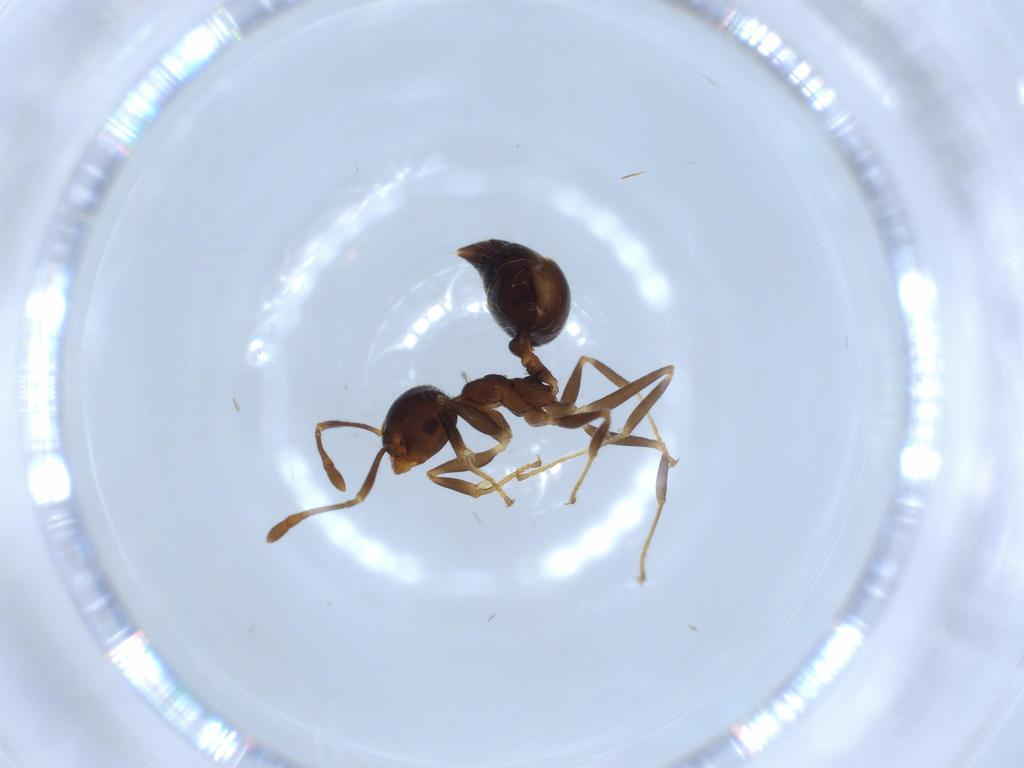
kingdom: Animalia
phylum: Arthropoda
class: Insecta
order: Hymenoptera
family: Formicidae
